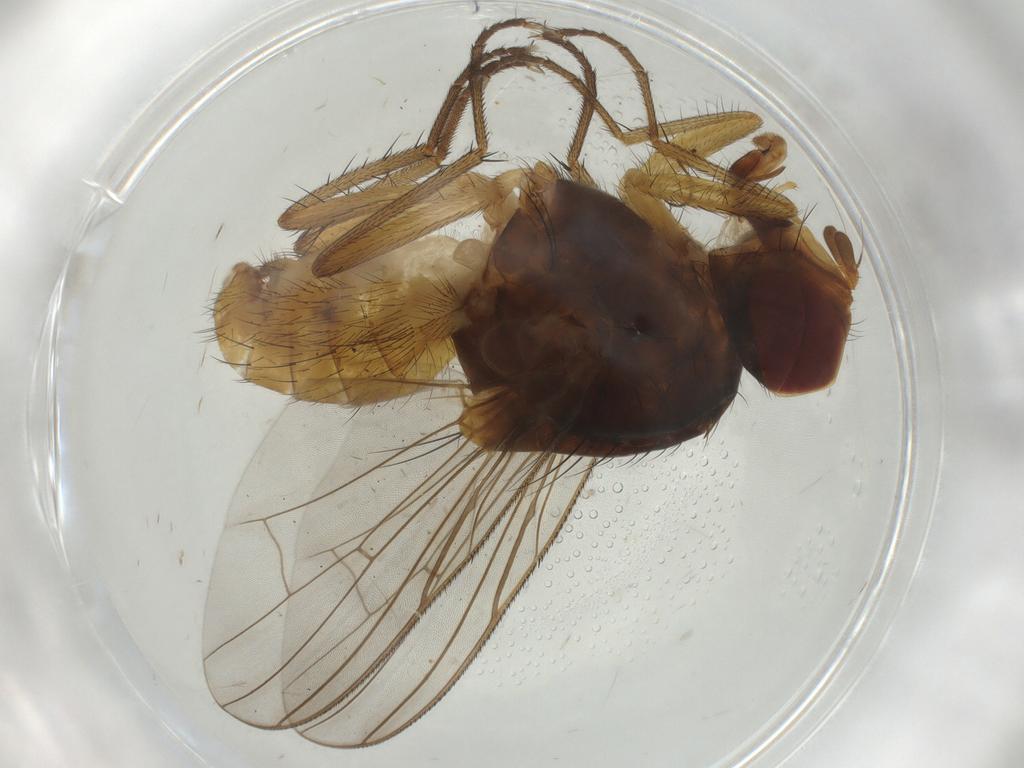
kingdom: Animalia
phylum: Arthropoda
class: Insecta
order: Diptera
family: Anthomyiidae
